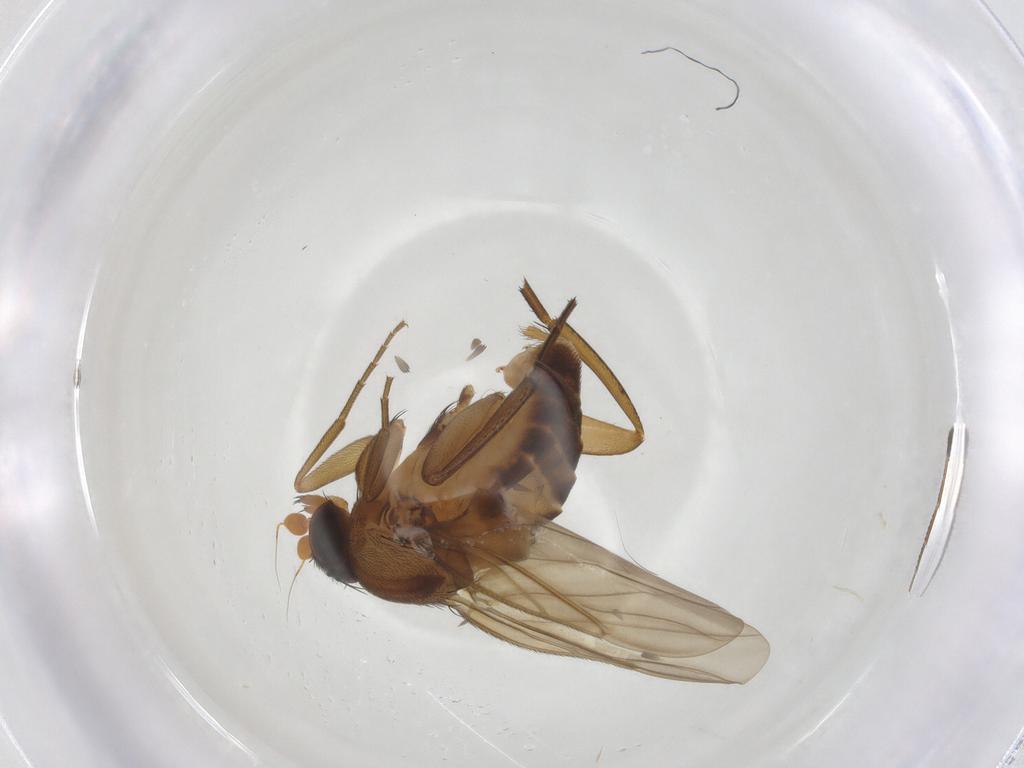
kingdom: Animalia
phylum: Arthropoda
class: Insecta
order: Diptera
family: Phoridae
